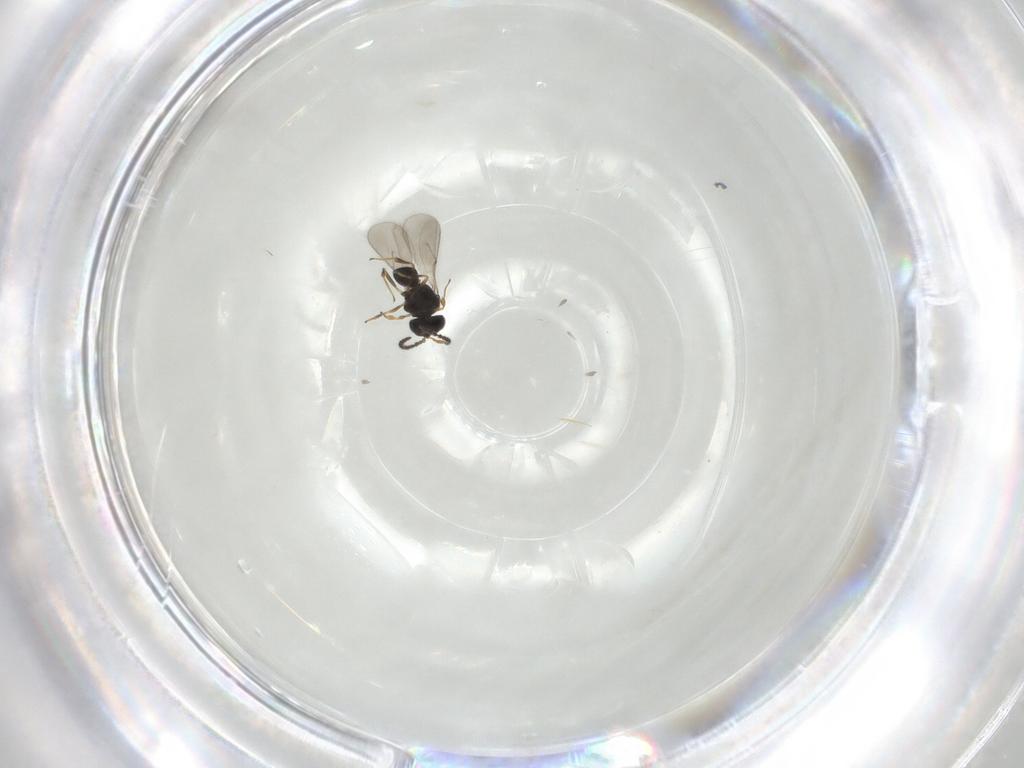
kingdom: Animalia
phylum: Arthropoda
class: Insecta
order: Hymenoptera
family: Scelionidae
